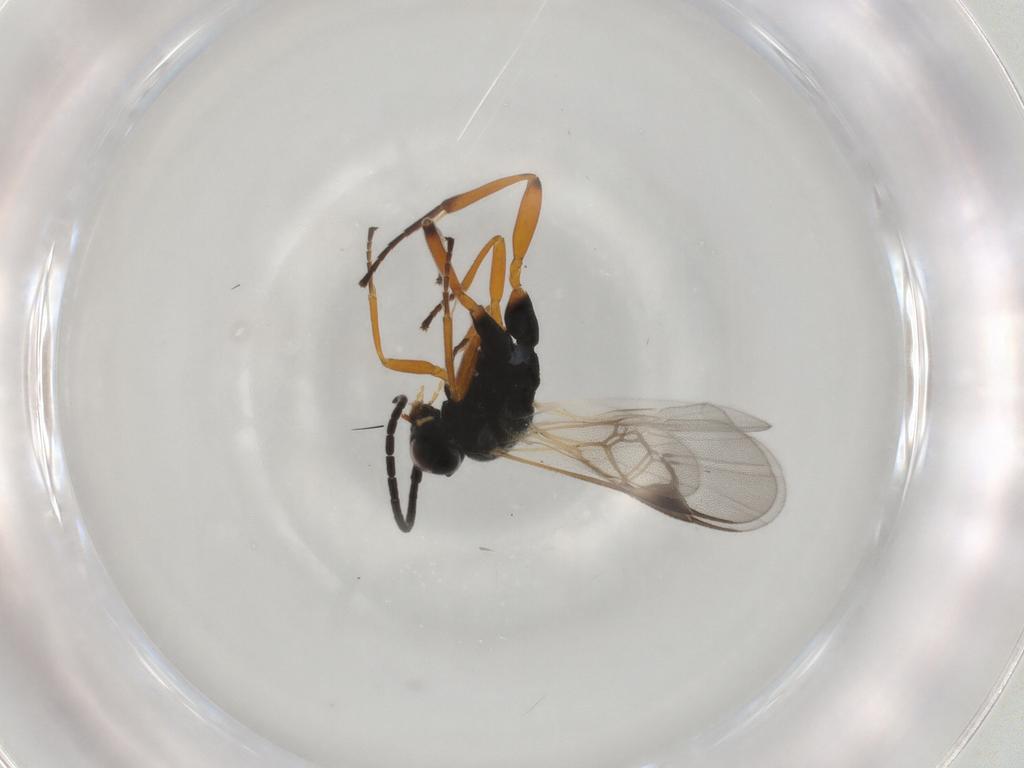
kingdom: Animalia
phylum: Arthropoda
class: Insecta
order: Hymenoptera
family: Braconidae
